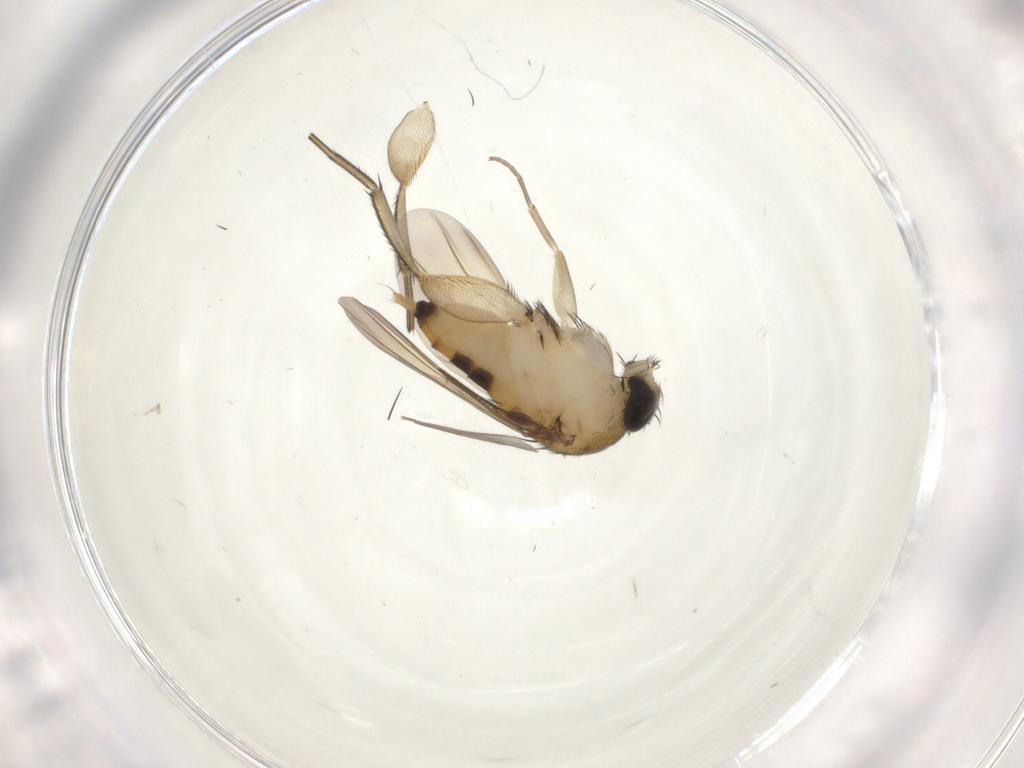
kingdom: Animalia
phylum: Arthropoda
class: Insecta
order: Diptera
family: Phoridae
